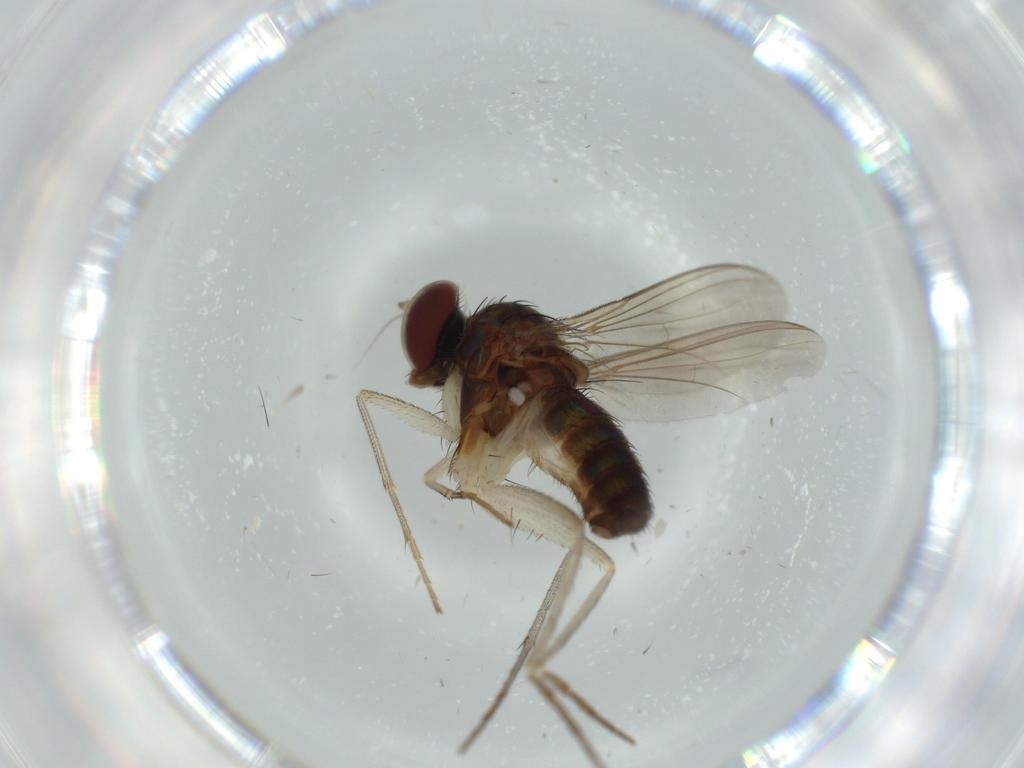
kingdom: Animalia
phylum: Arthropoda
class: Insecta
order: Diptera
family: Dolichopodidae
